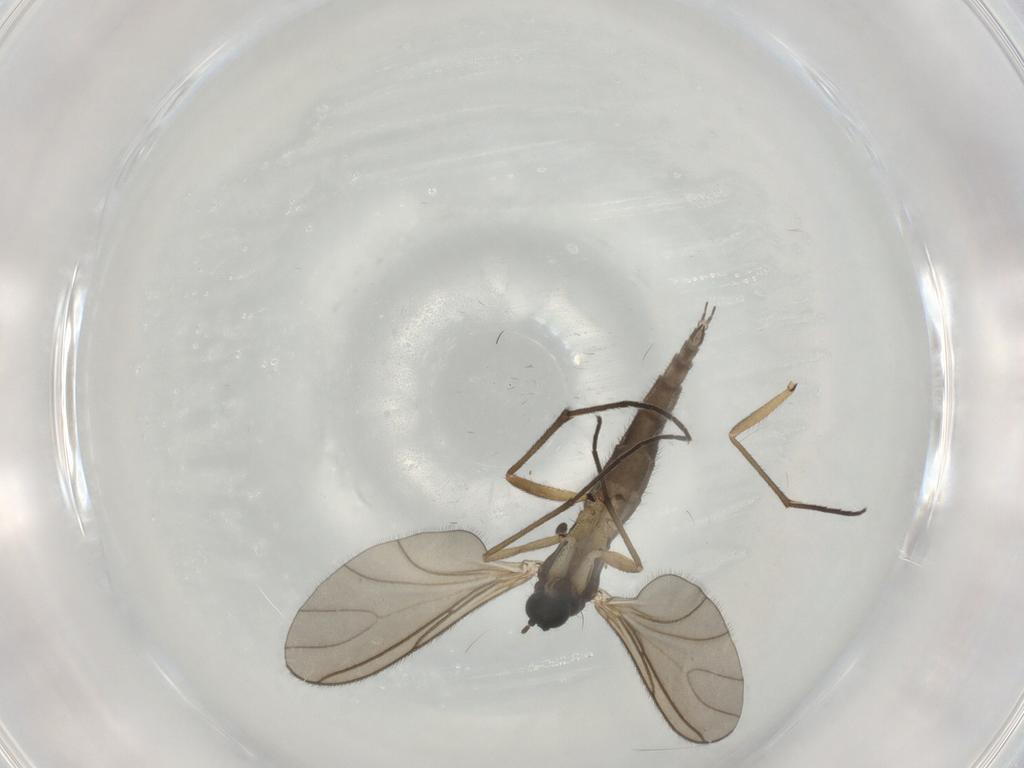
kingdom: Animalia
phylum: Arthropoda
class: Insecta
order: Diptera
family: Sciaridae
